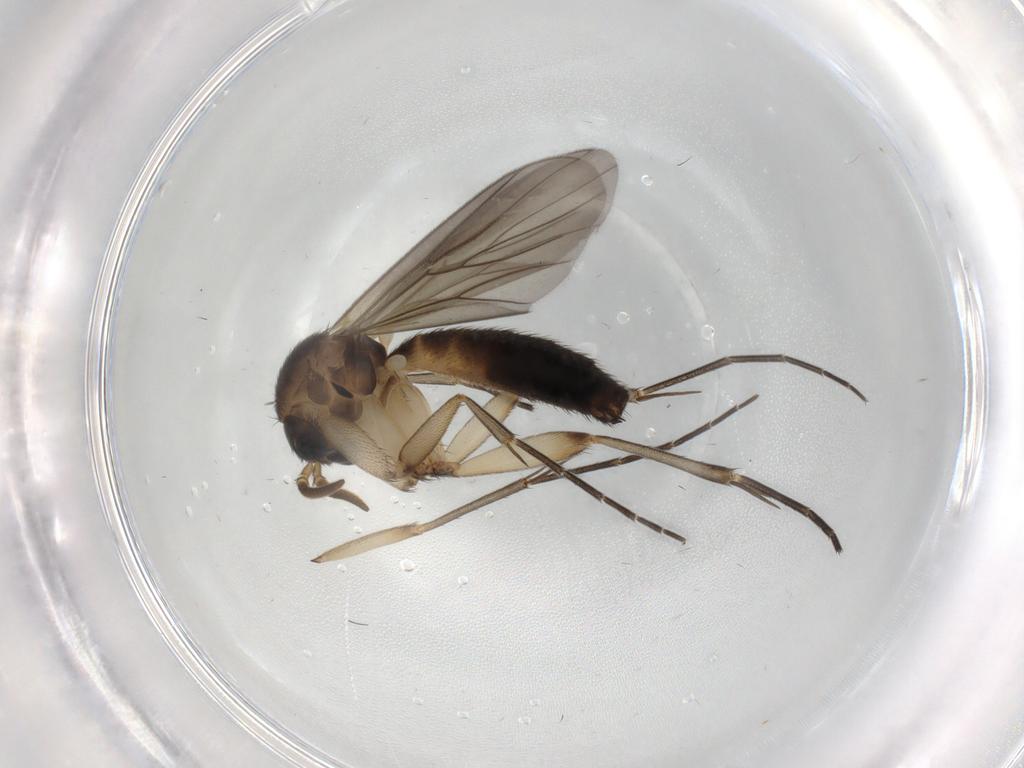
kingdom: Animalia
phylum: Arthropoda
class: Insecta
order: Diptera
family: Mycetophilidae
